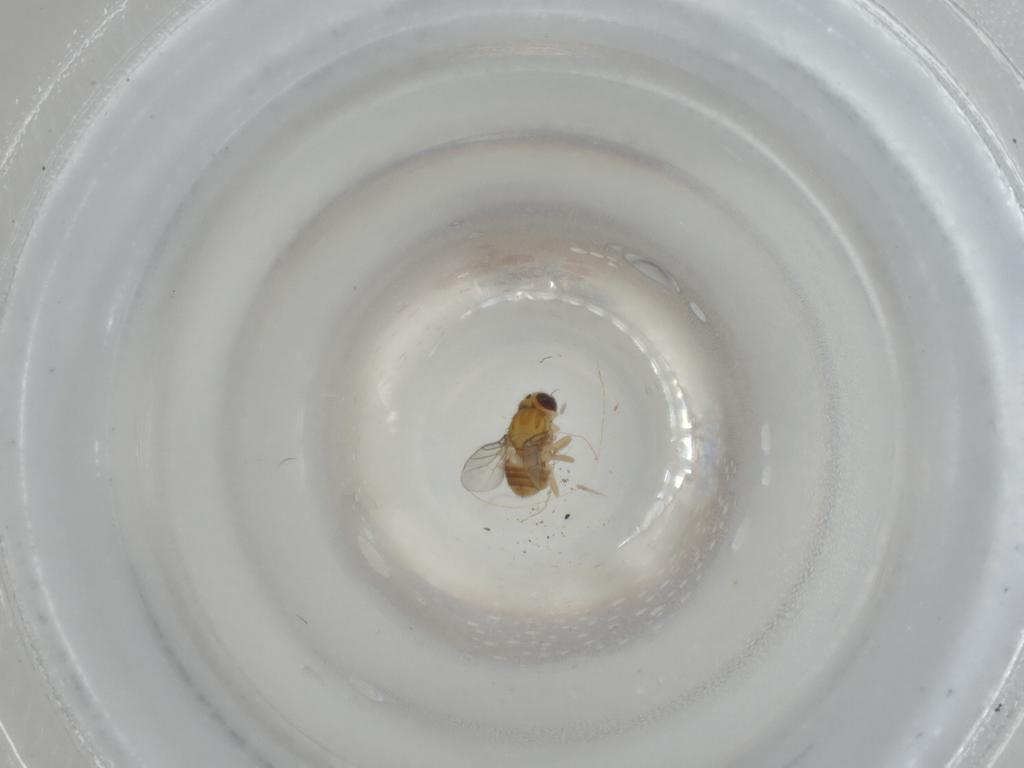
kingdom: Animalia
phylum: Arthropoda
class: Insecta
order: Diptera
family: Chloropidae
